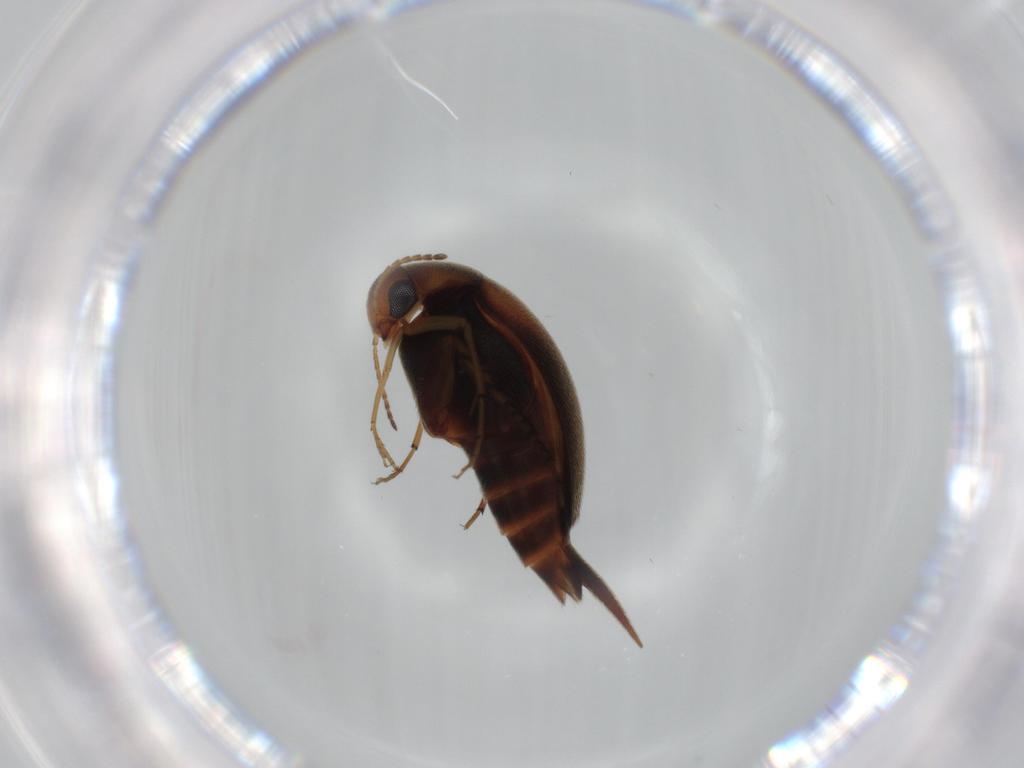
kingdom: Animalia
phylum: Arthropoda
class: Insecta
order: Coleoptera
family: Mordellidae
